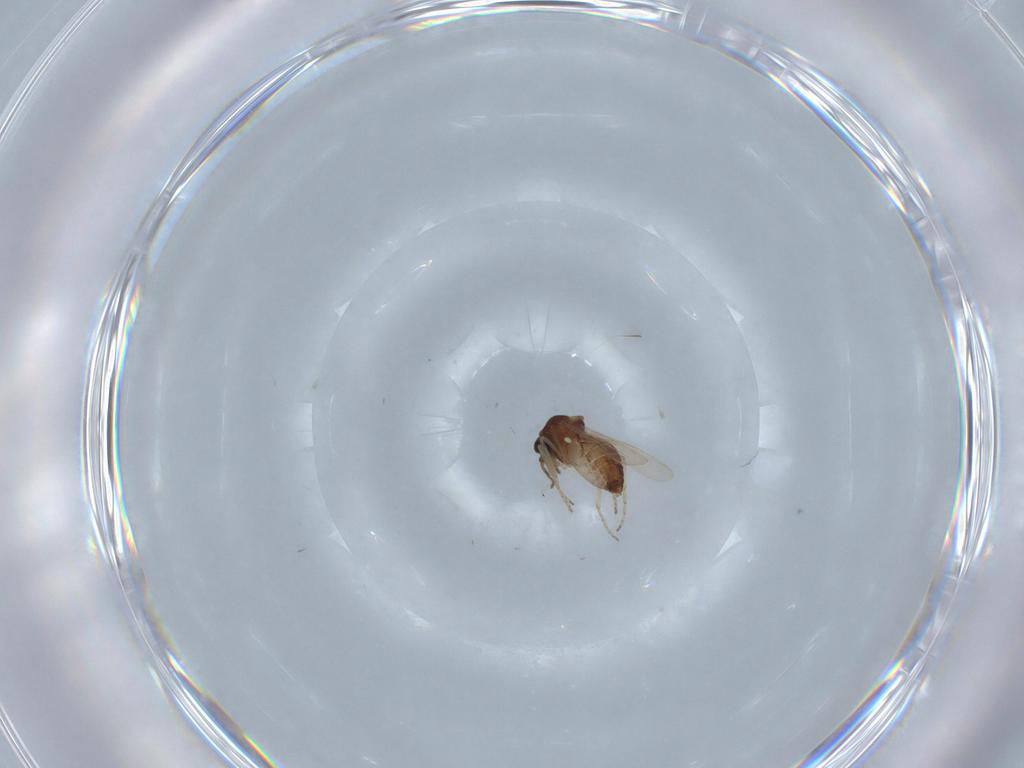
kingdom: Animalia
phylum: Arthropoda
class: Insecta
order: Diptera
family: Ceratopogonidae
